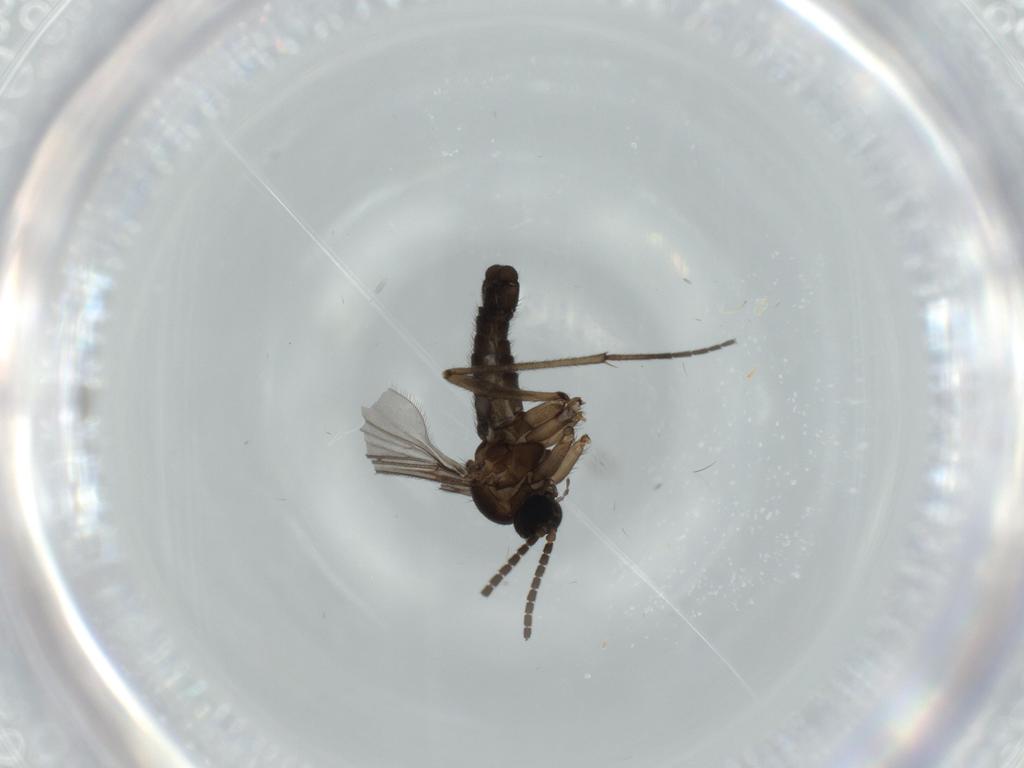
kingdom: Animalia
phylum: Arthropoda
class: Insecta
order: Diptera
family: Sciaridae
